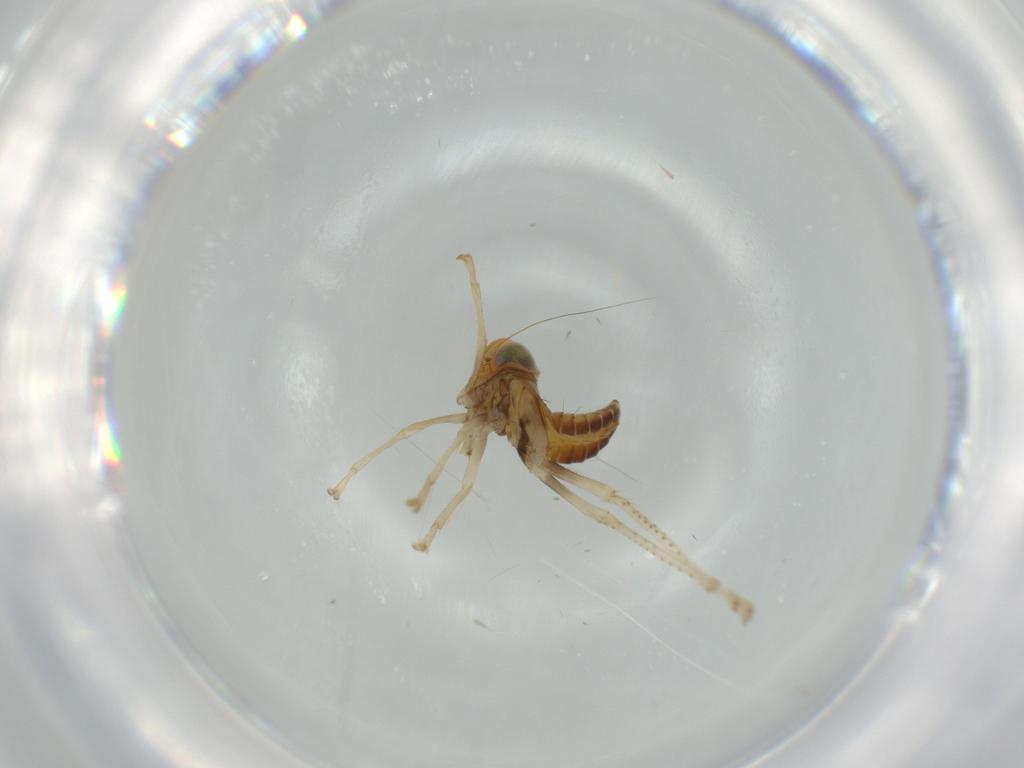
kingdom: Animalia
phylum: Arthropoda
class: Insecta
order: Hemiptera
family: Cicadellidae
